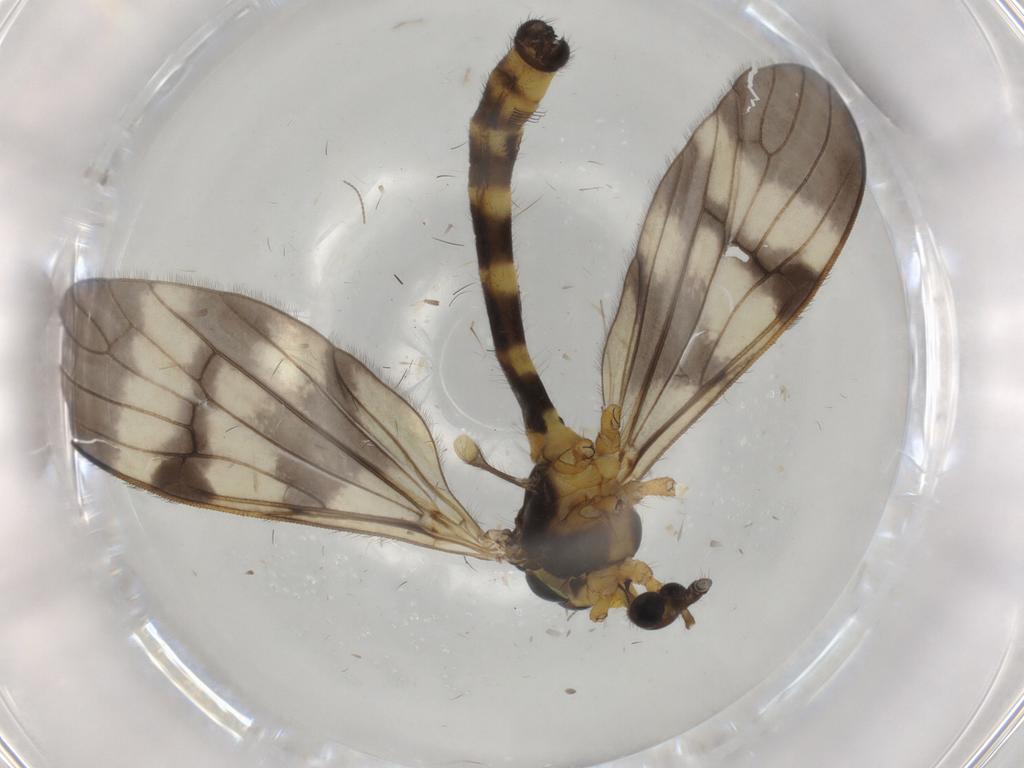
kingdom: Animalia
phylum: Arthropoda
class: Insecta
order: Diptera
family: Limoniidae
